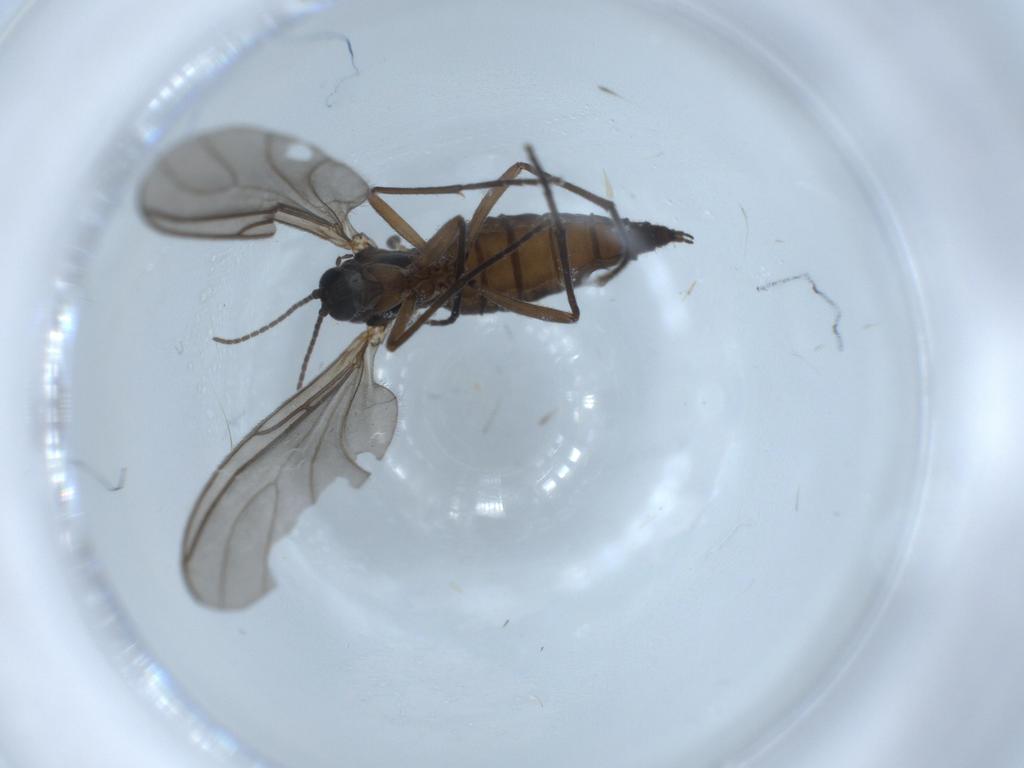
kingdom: Animalia
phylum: Arthropoda
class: Insecta
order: Diptera
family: Sciaridae
